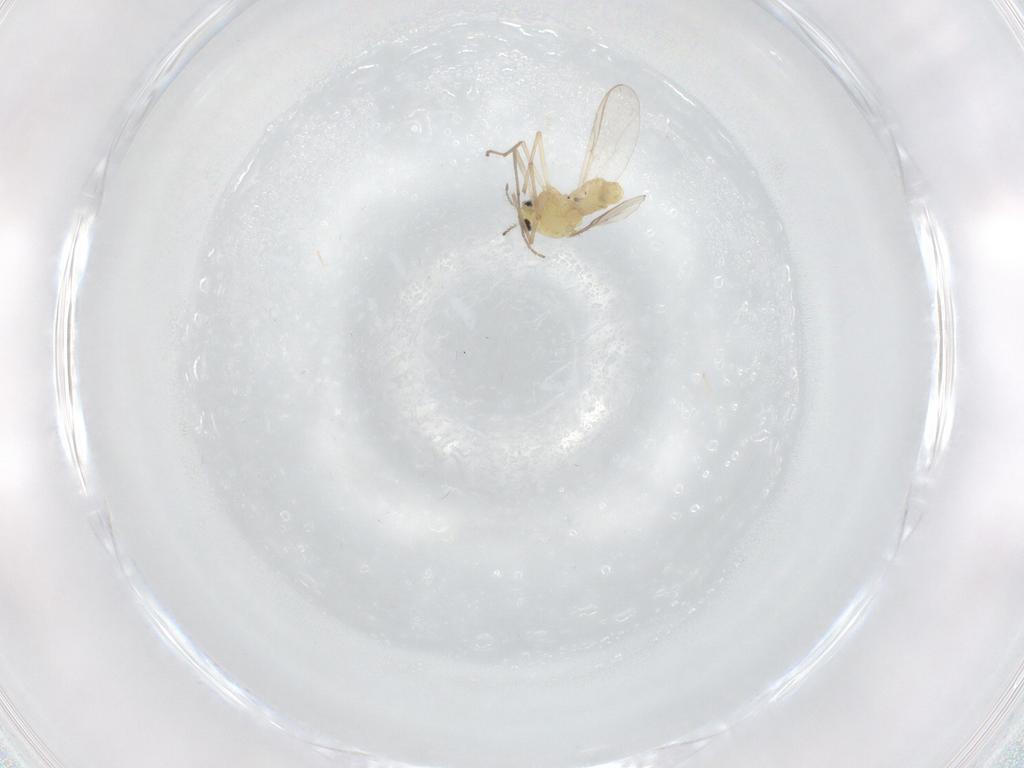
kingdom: Animalia
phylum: Arthropoda
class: Insecta
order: Diptera
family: Chironomidae
